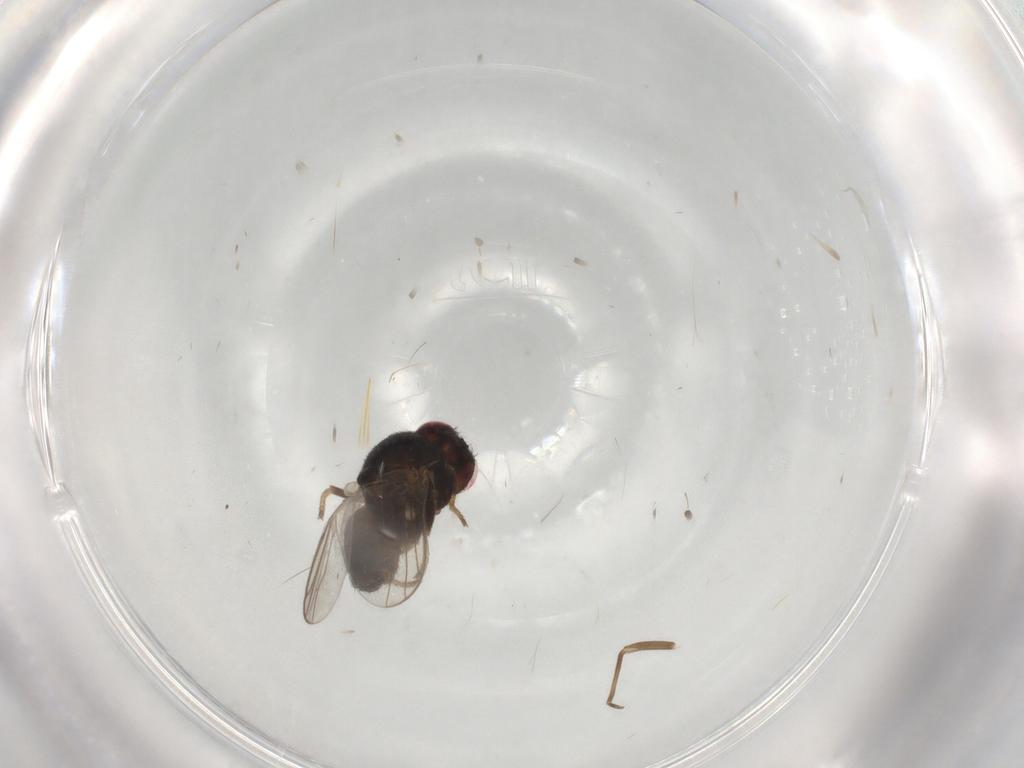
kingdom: Animalia
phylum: Arthropoda
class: Insecta
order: Diptera
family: Chloropidae
